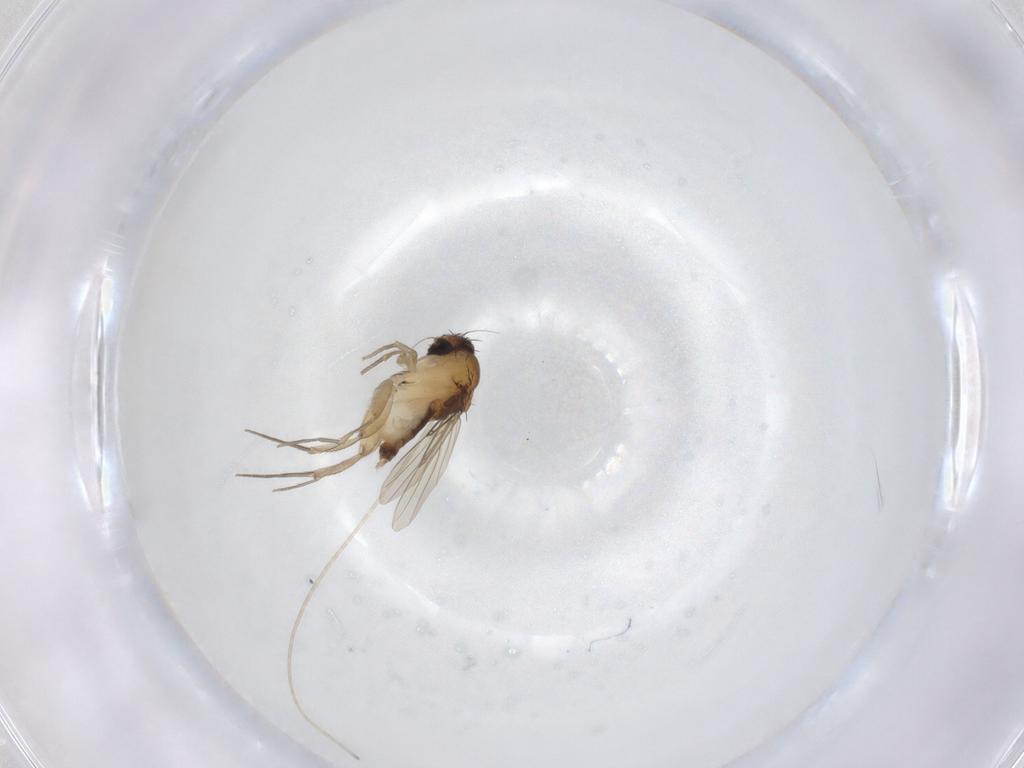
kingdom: Animalia
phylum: Arthropoda
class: Insecta
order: Diptera
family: Phoridae
